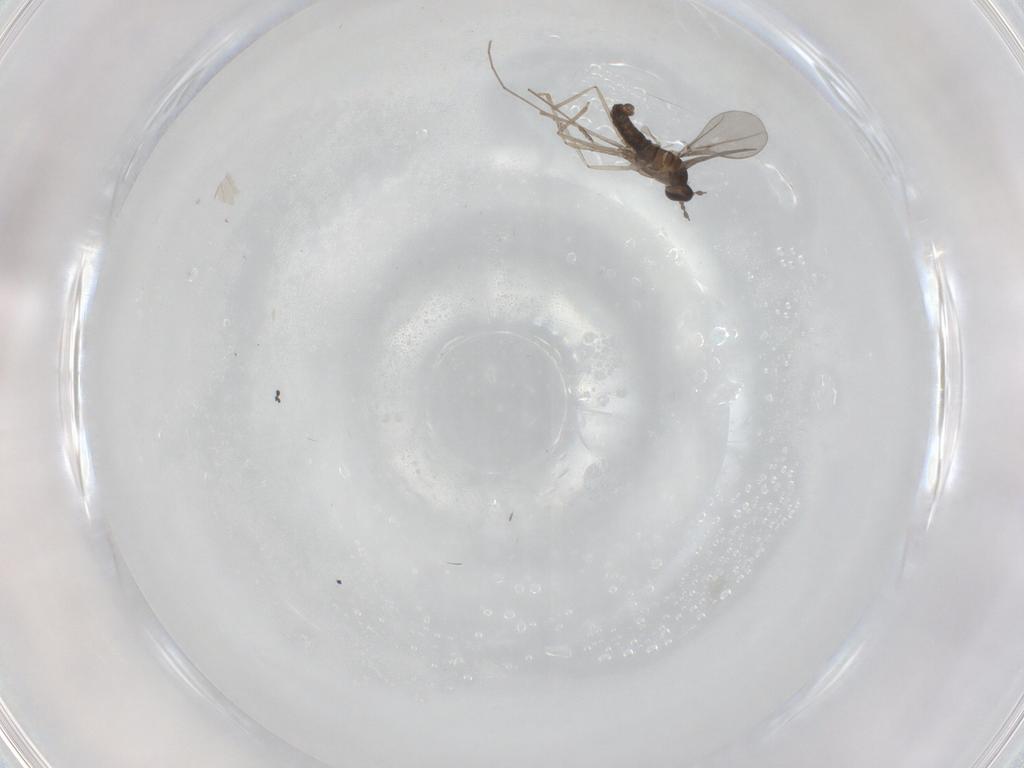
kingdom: Animalia
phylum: Arthropoda
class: Insecta
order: Diptera
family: Cecidomyiidae
